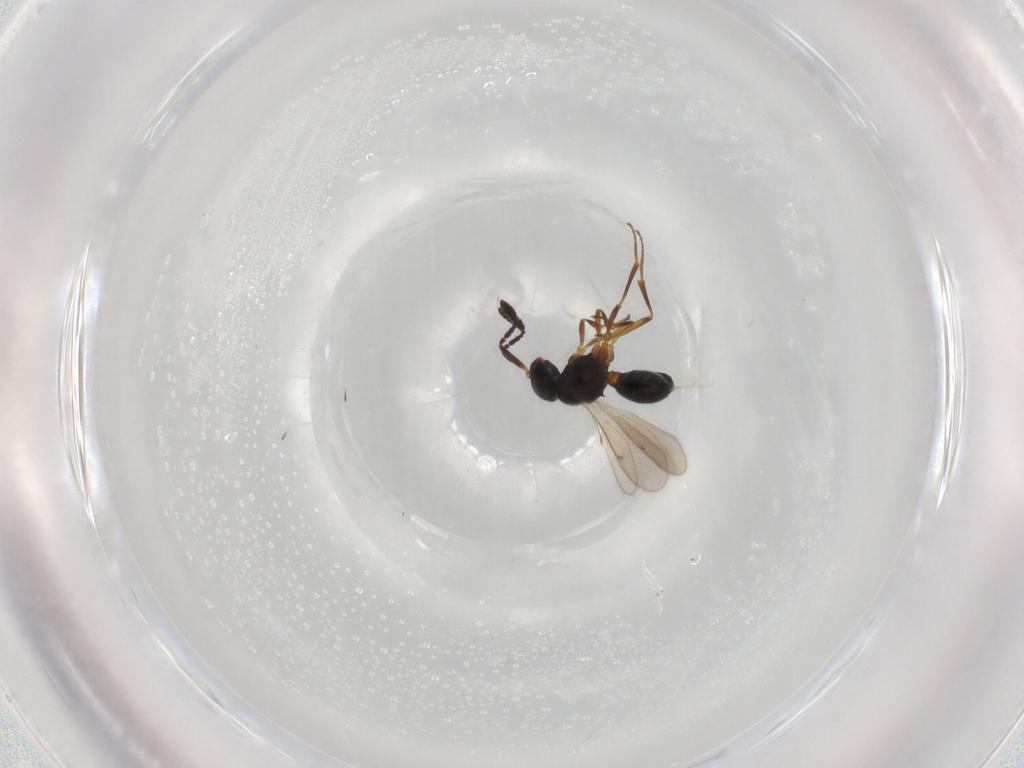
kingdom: Animalia
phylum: Arthropoda
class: Insecta
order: Hymenoptera
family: Scelionidae
